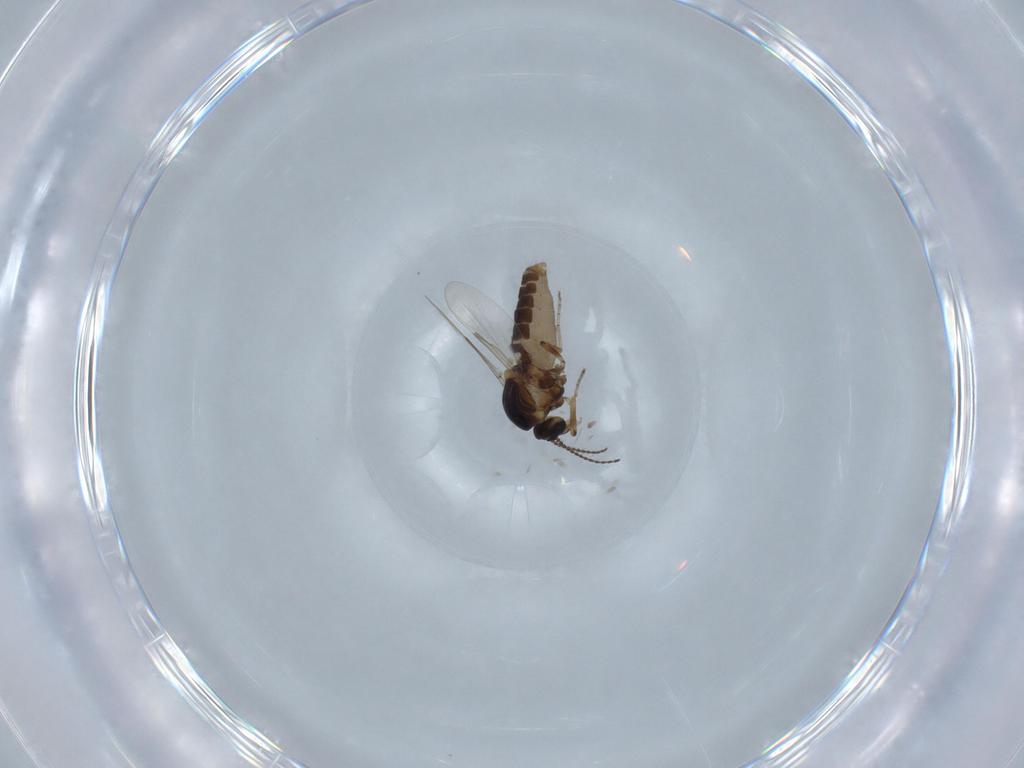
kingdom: Animalia
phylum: Arthropoda
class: Insecta
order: Diptera
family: Ceratopogonidae
